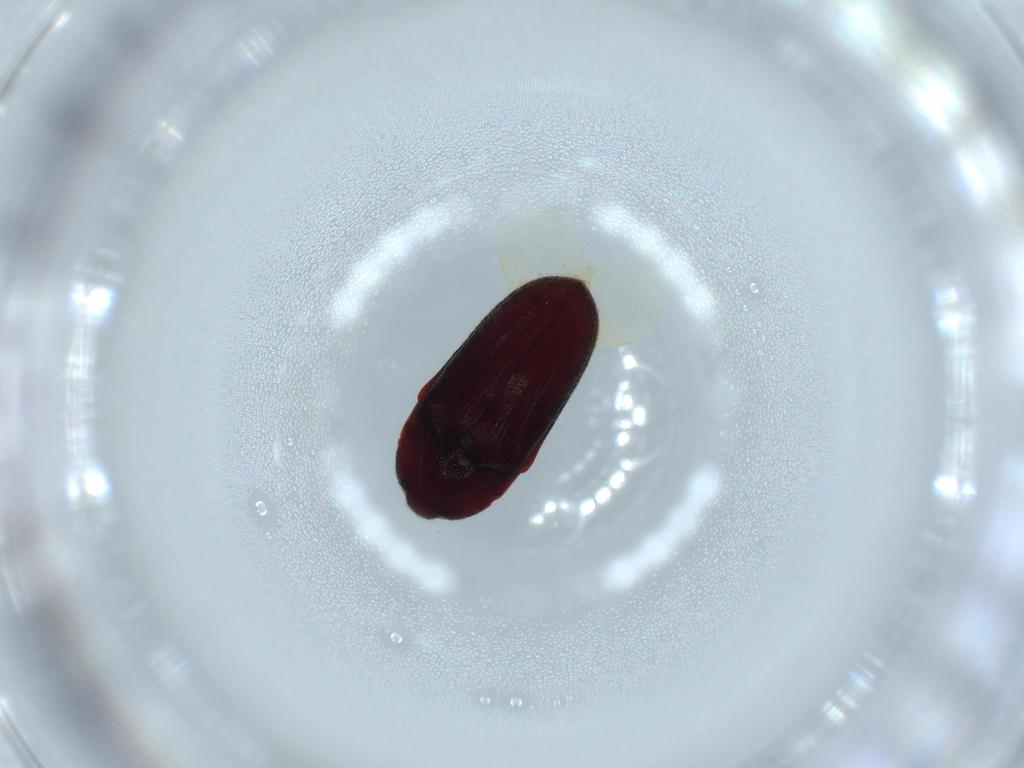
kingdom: Animalia
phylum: Arthropoda
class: Insecta
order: Coleoptera
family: Throscidae
